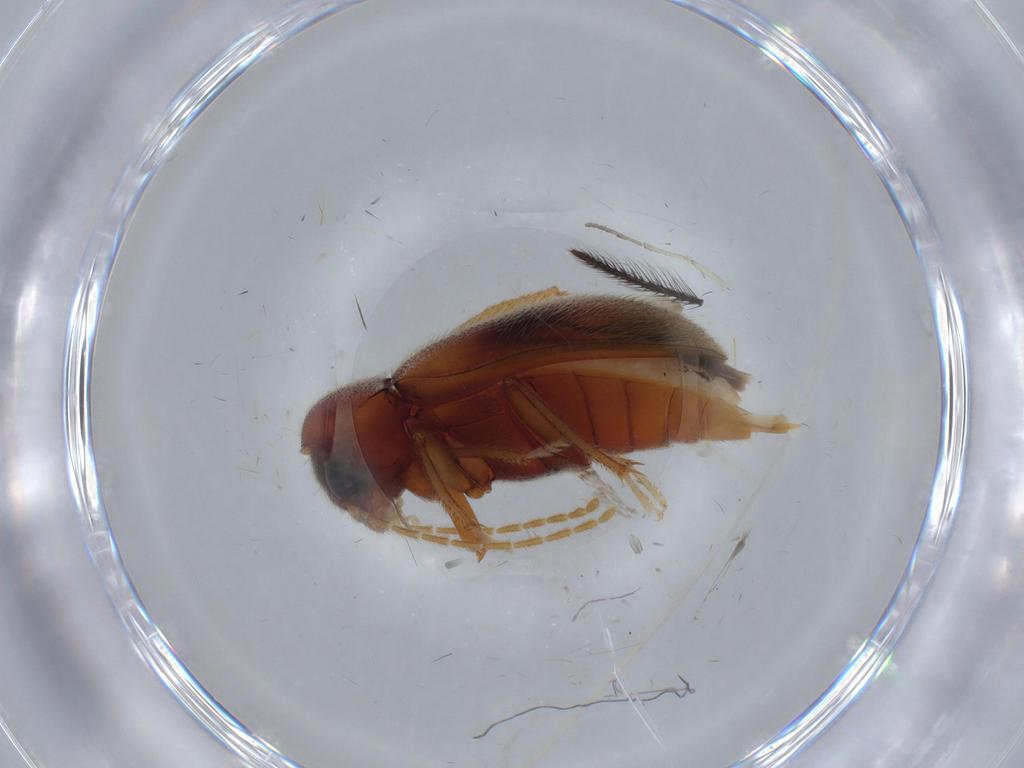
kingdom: Animalia
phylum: Arthropoda
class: Insecta
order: Coleoptera
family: Ptilodactylidae
